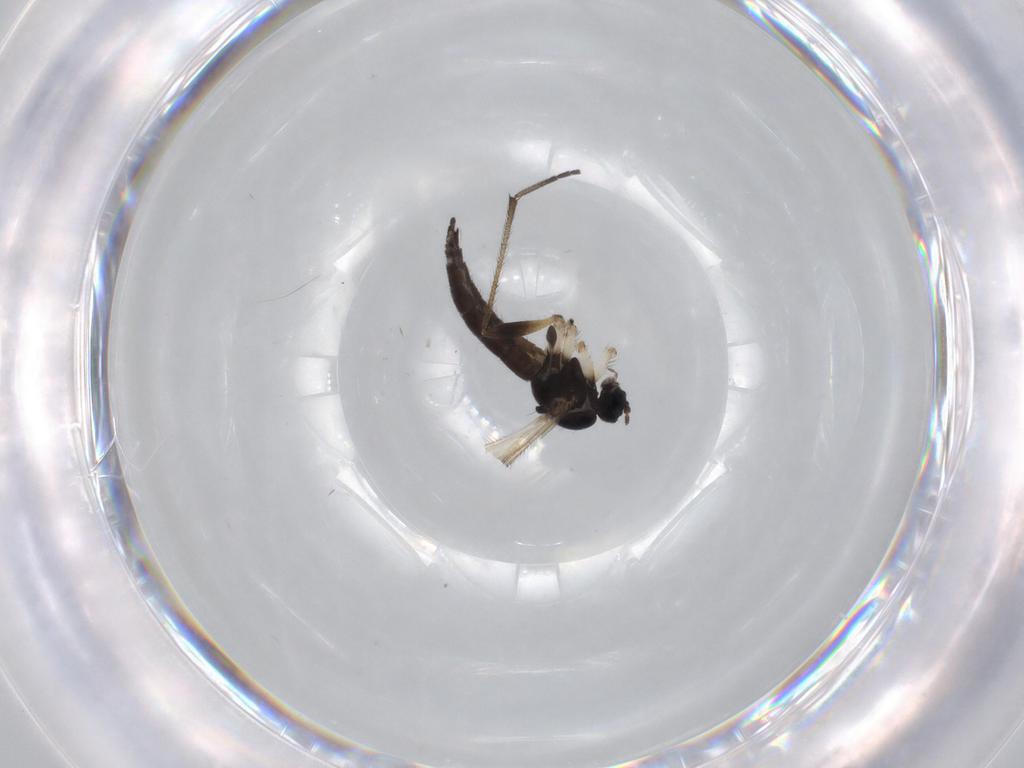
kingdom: Animalia
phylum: Arthropoda
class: Insecta
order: Diptera
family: Sciaridae
